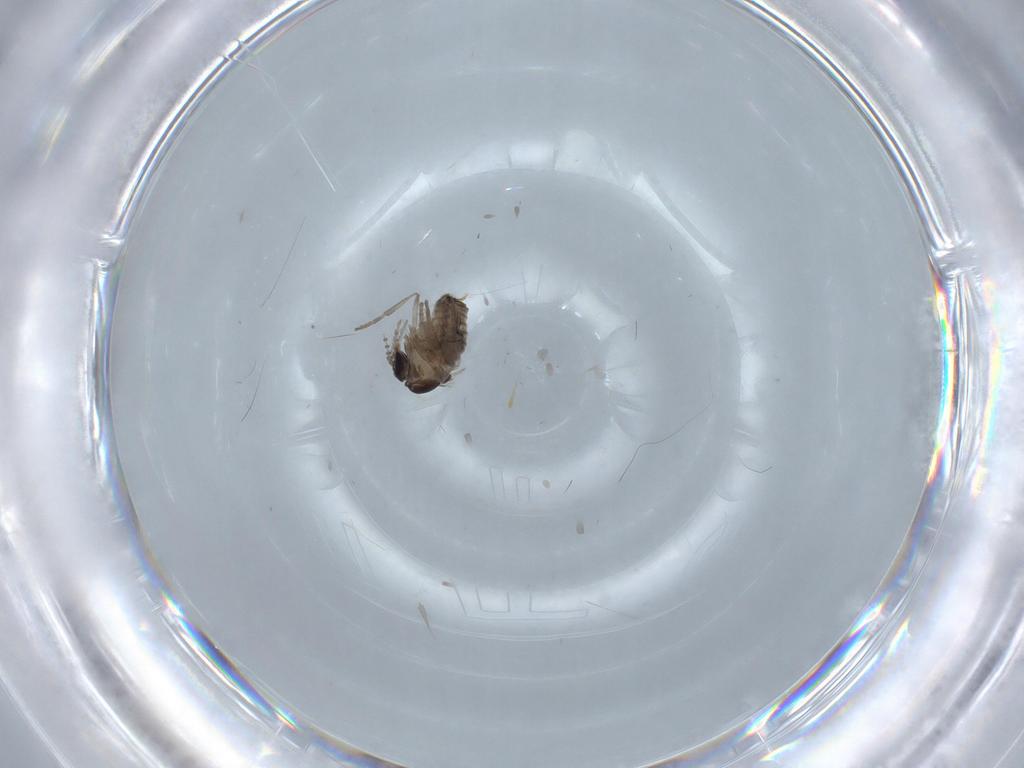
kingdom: Animalia
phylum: Arthropoda
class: Insecta
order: Diptera
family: Psychodidae
